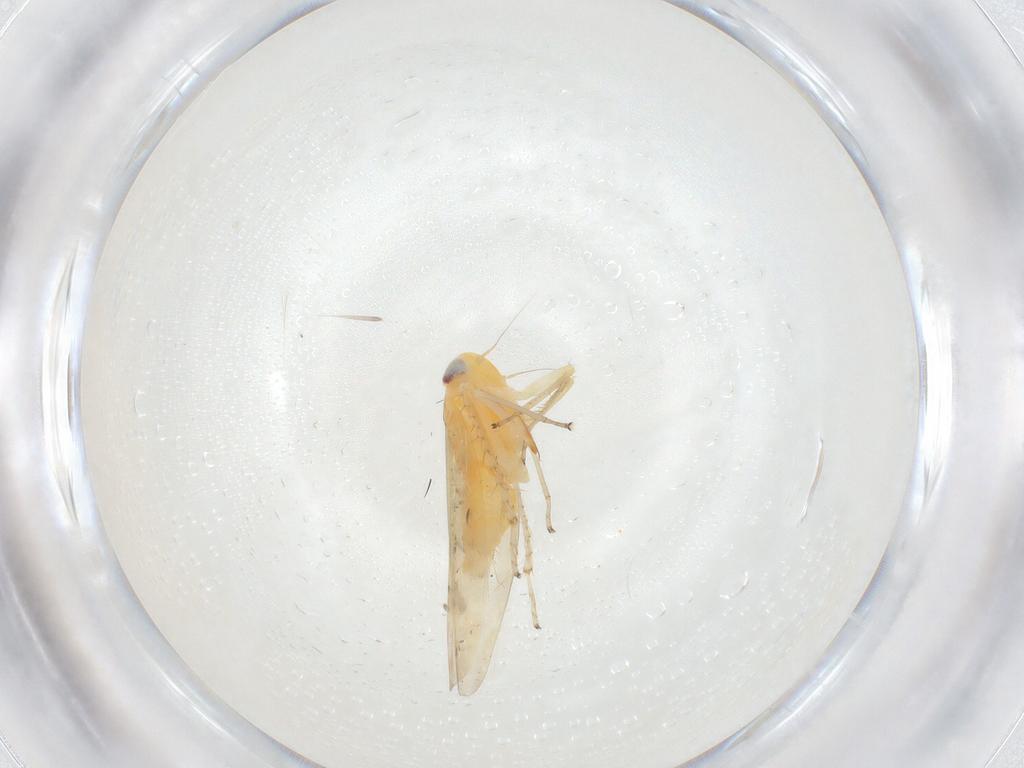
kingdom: Animalia
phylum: Arthropoda
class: Insecta
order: Hemiptera
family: Cicadellidae
